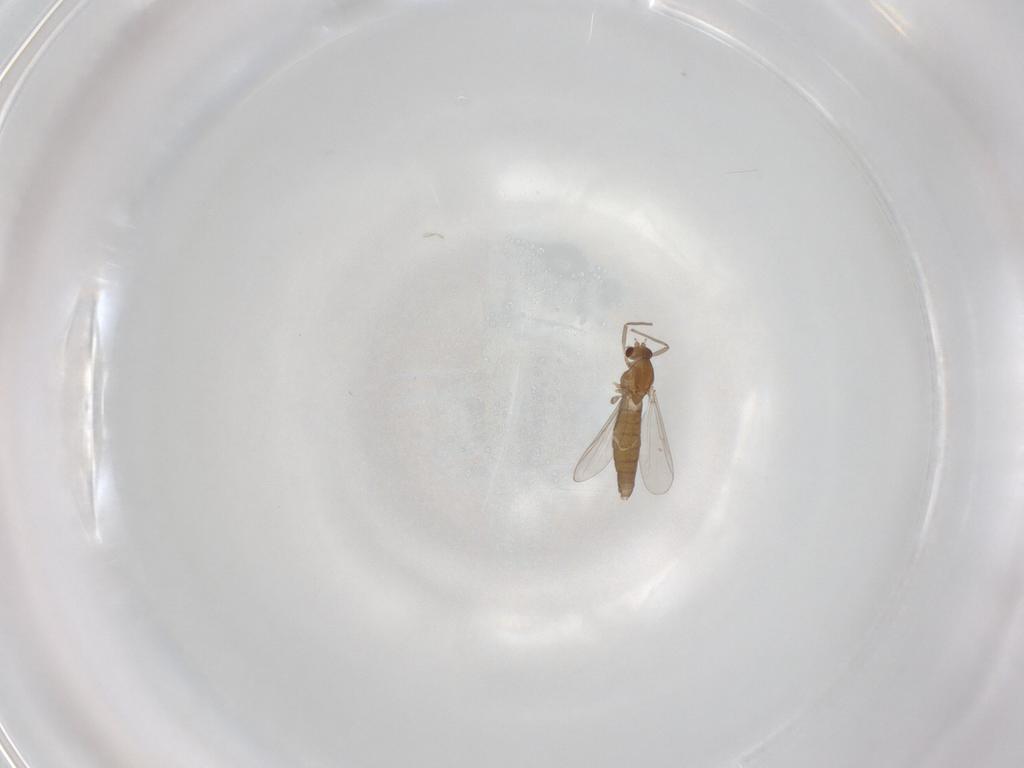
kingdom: Animalia
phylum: Arthropoda
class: Insecta
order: Diptera
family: Chironomidae
